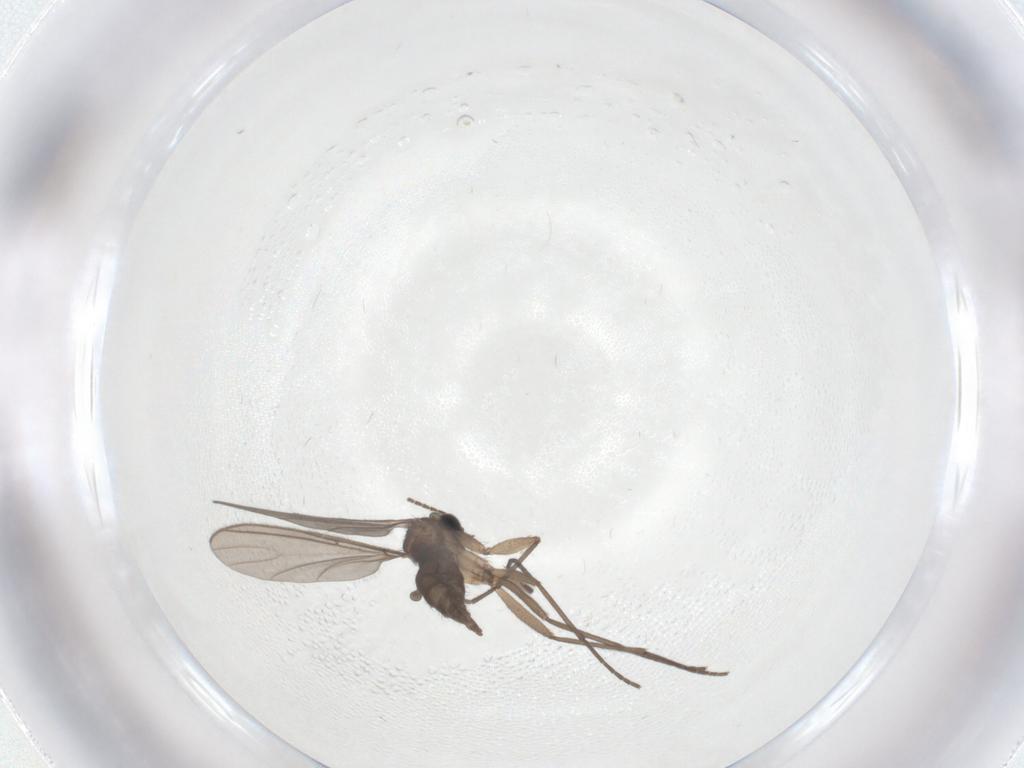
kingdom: Animalia
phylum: Arthropoda
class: Insecta
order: Diptera
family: Sciaridae
